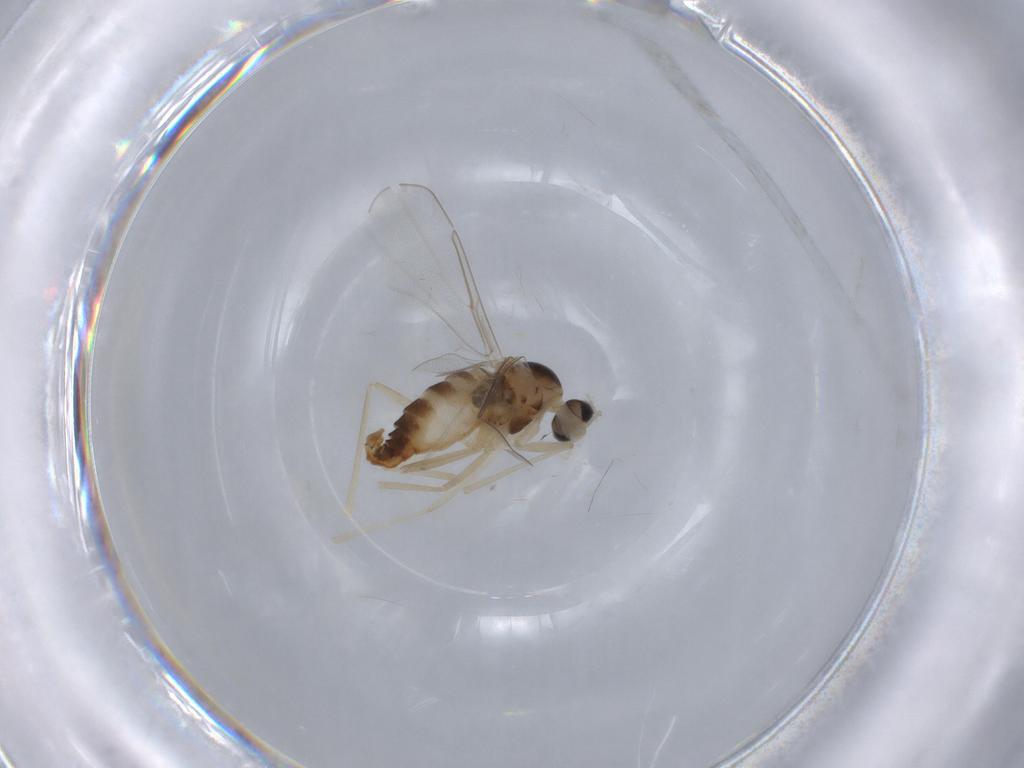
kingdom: Animalia
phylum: Arthropoda
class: Insecta
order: Diptera
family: Cecidomyiidae
